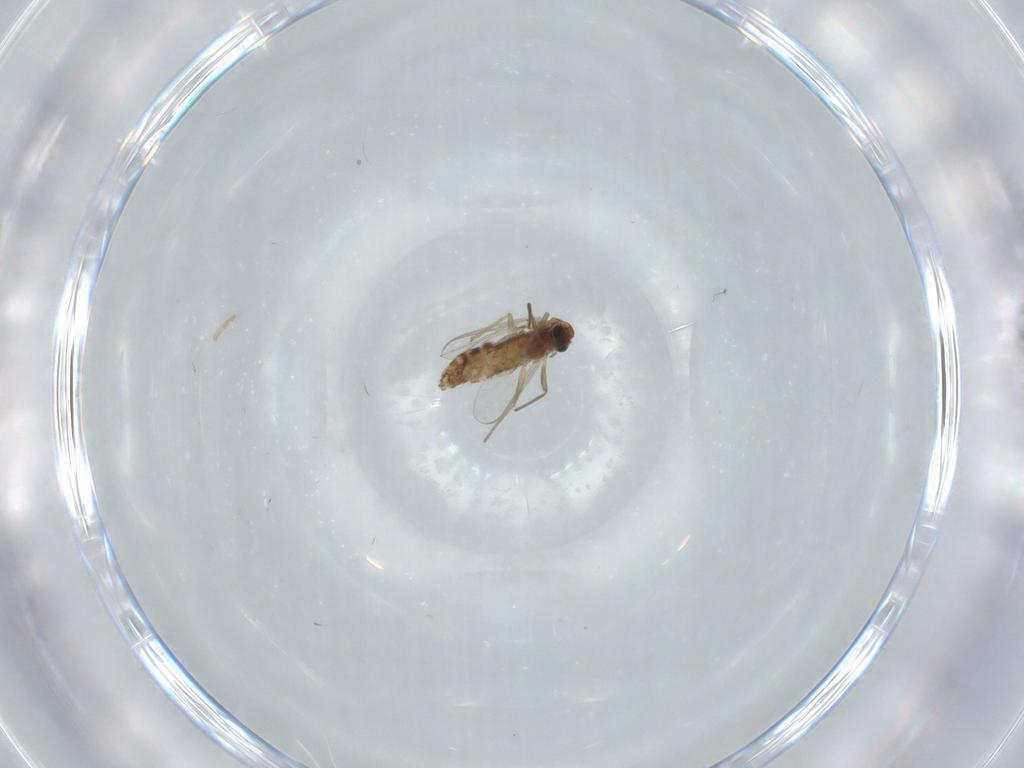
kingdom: Animalia
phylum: Arthropoda
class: Insecta
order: Diptera
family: Chironomidae
